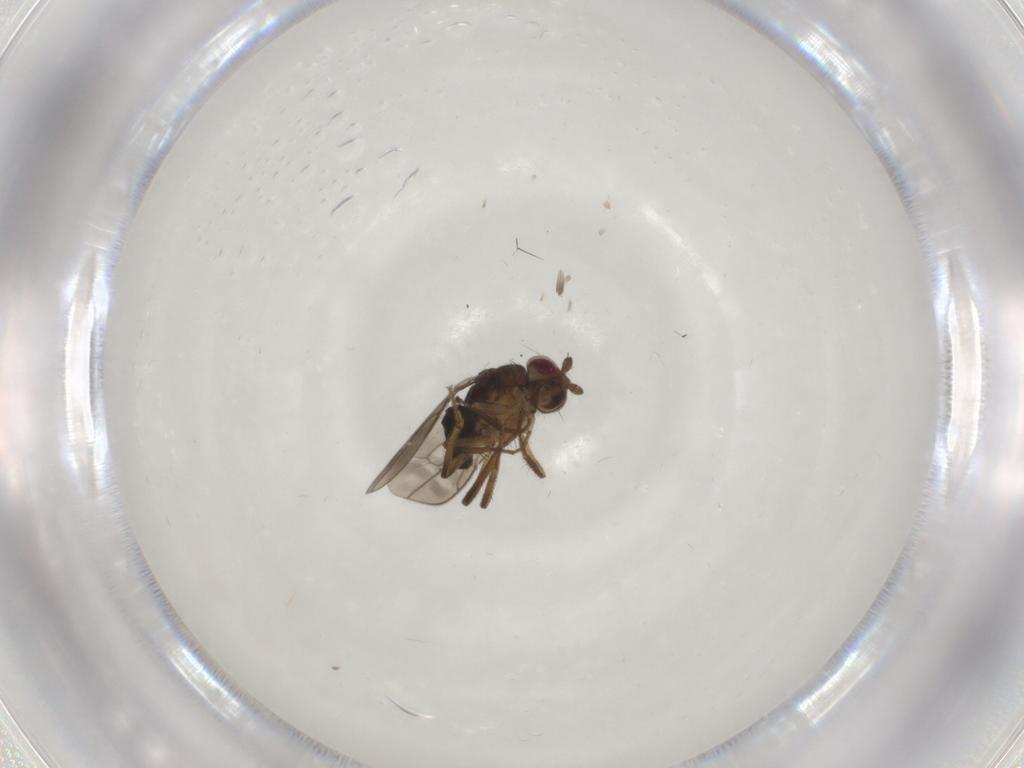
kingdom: Animalia
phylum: Arthropoda
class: Insecta
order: Diptera
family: Sphaeroceridae
